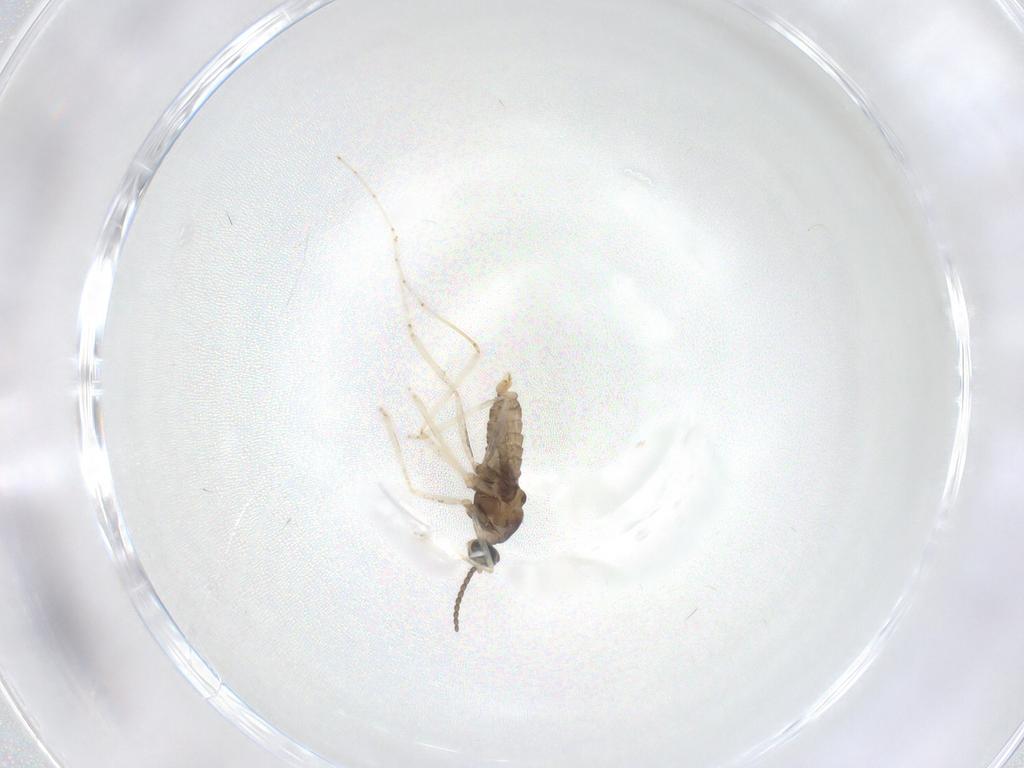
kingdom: Animalia
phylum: Arthropoda
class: Insecta
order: Diptera
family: Cecidomyiidae
